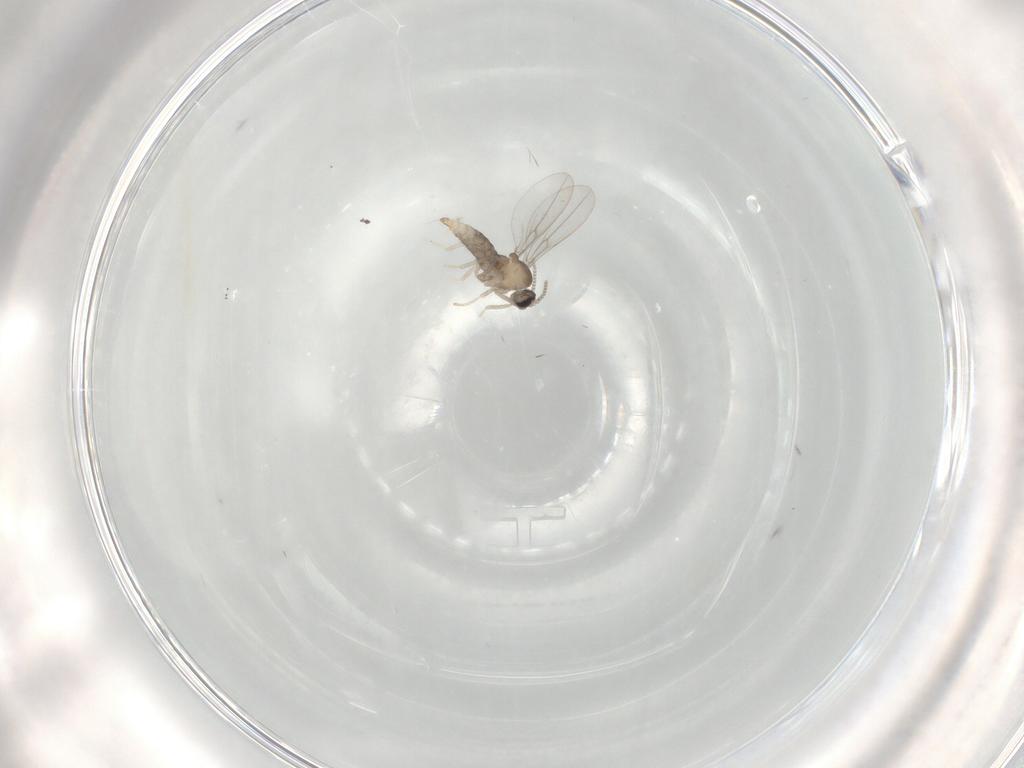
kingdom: Animalia
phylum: Arthropoda
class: Insecta
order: Diptera
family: Cecidomyiidae
